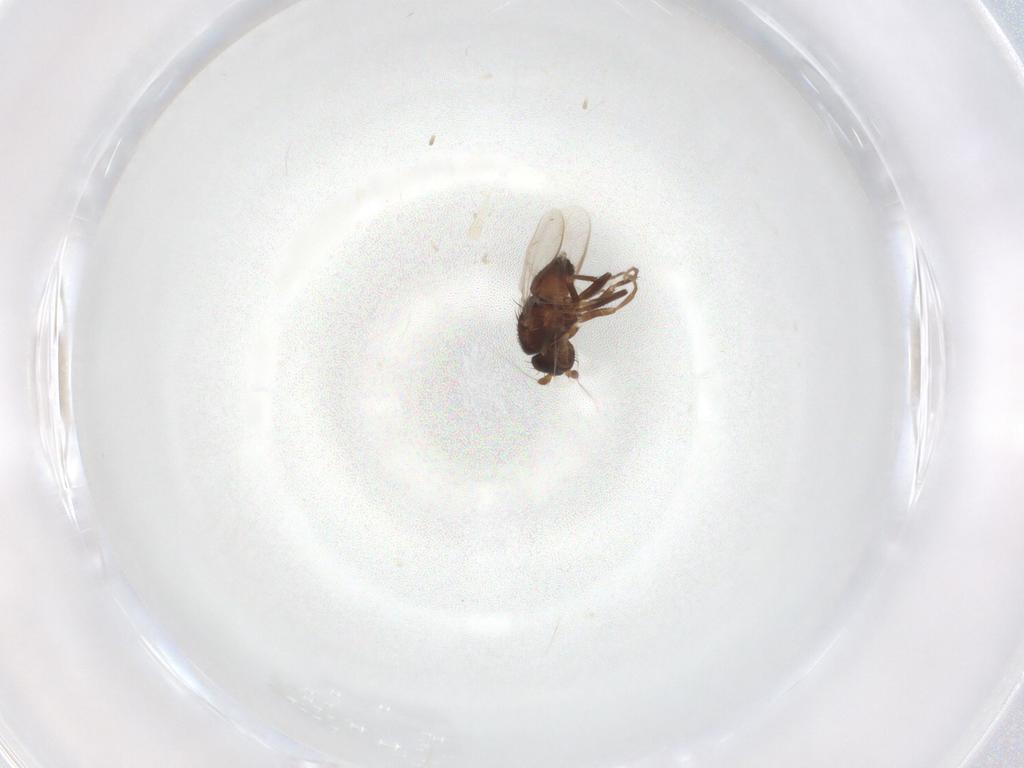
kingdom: Animalia
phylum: Arthropoda
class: Insecta
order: Diptera
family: Sphaeroceridae
